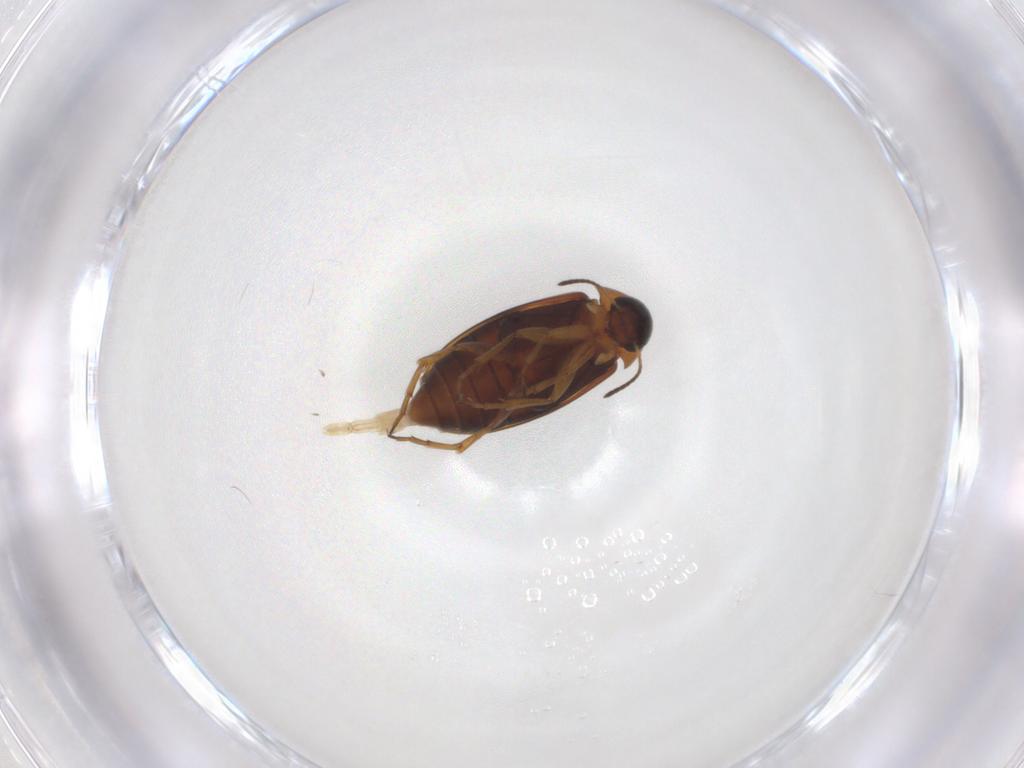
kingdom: Animalia
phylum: Arthropoda
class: Insecta
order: Coleoptera
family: Scraptiidae
